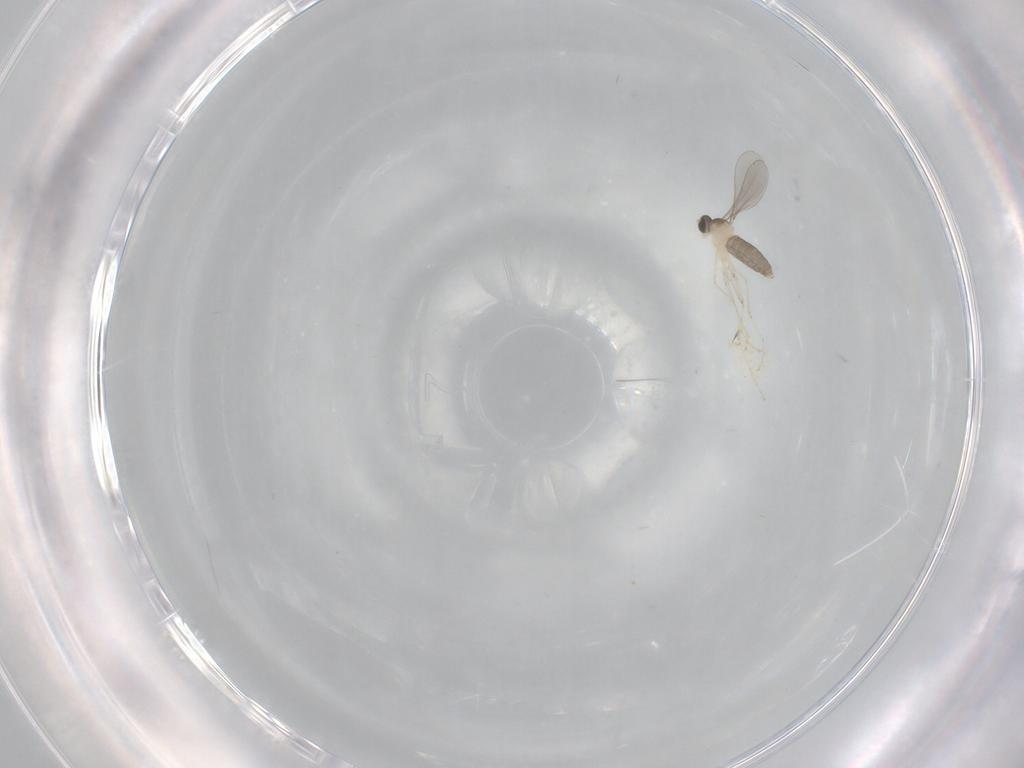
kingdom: Animalia
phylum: Arthropoda
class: Insecta
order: Diptera
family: Cecidomyiidae
